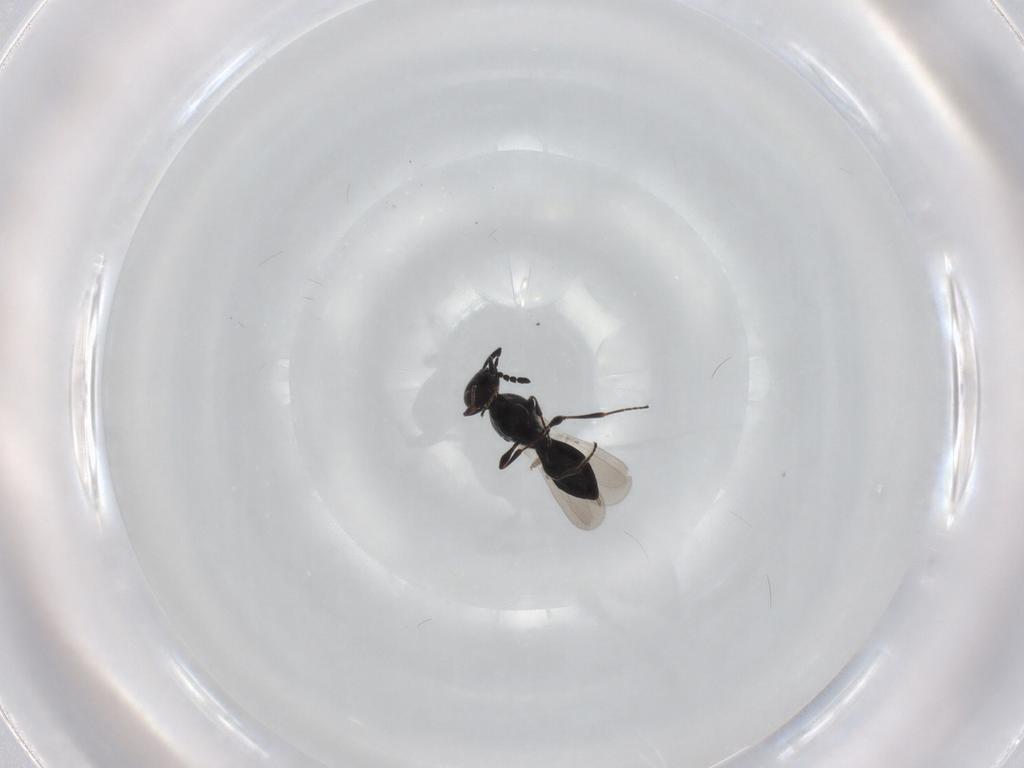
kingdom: Animalia
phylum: Arthropoda
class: Insecta
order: Hymenoptera
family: Platygastridae
